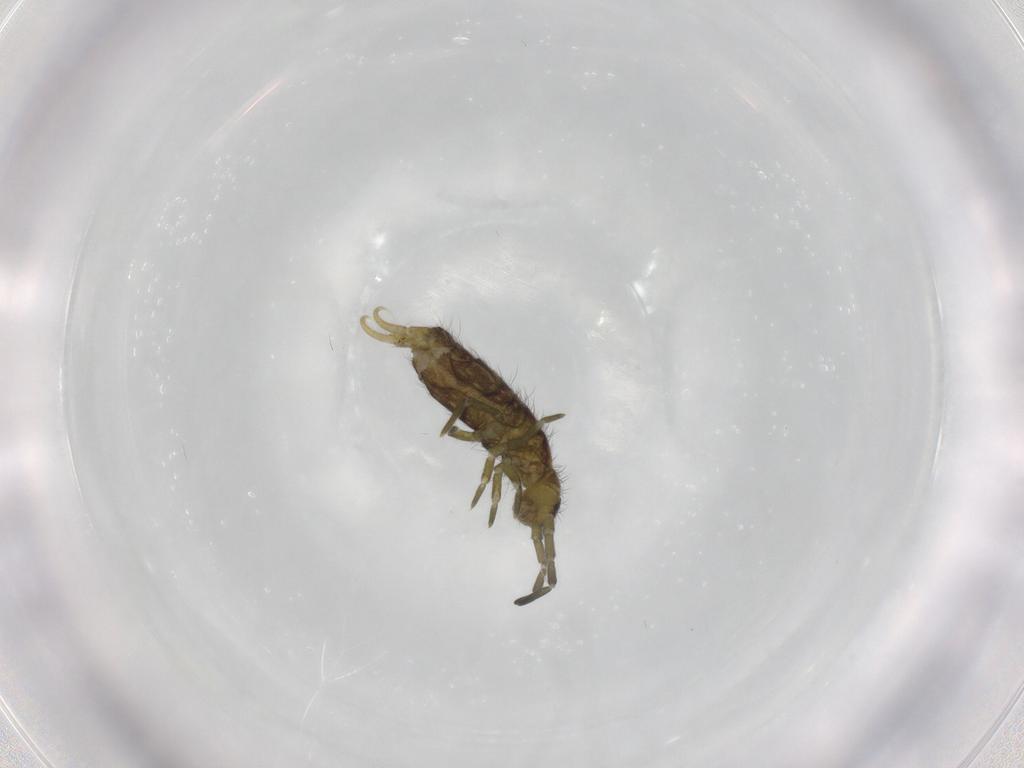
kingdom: Animalia
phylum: Arthropoda
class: Collembola
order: Entomobryomorpha
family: Isotomidae
